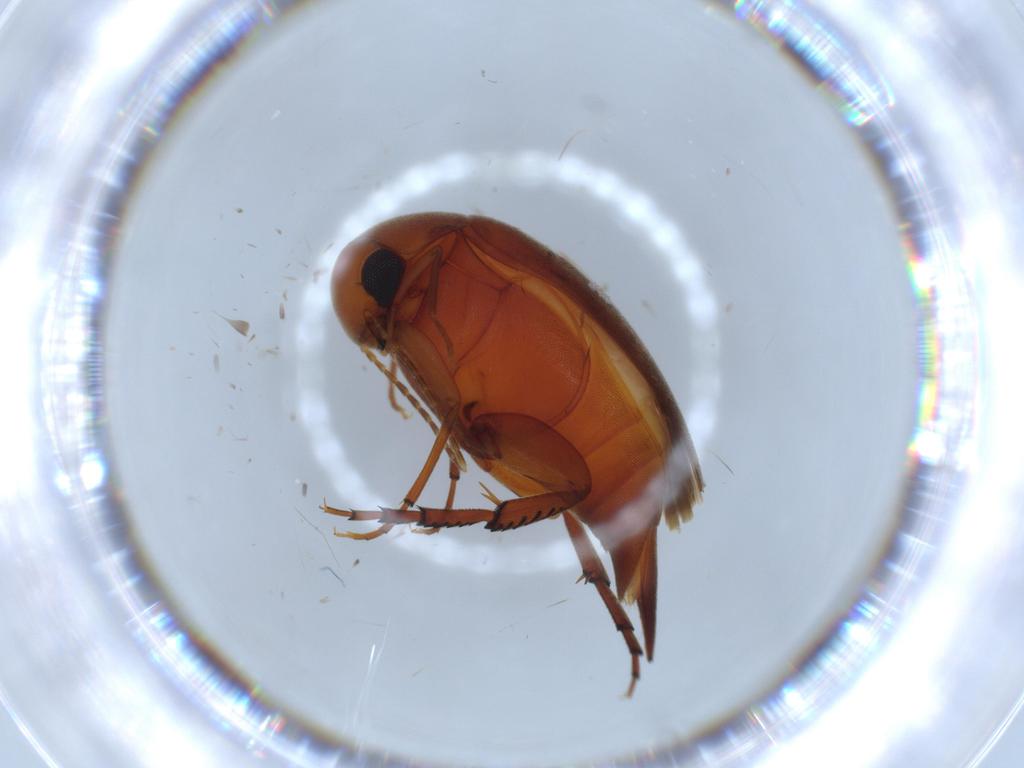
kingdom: Animalia
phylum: Arthropoda
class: Insecta
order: Coleoptera
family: Mordellidae
